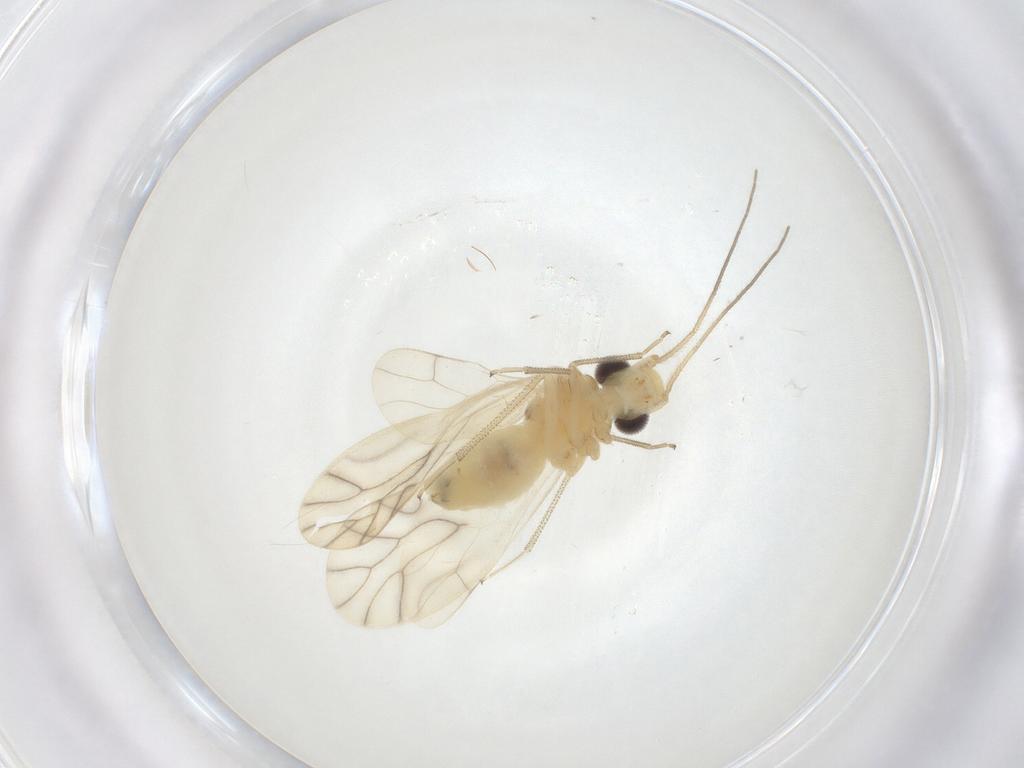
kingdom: Animalia
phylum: Arthropoda
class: Insecta
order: Psocodea
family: Caeciliusidae
